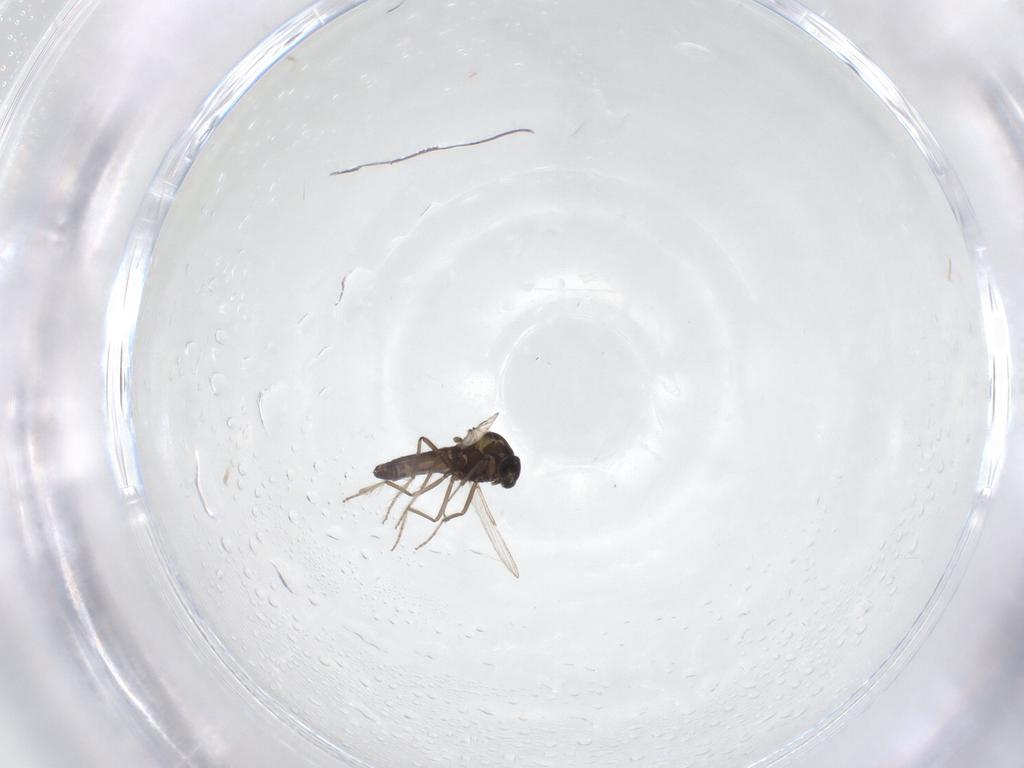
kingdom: Animalia
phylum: Arthropoda
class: Insecta
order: Diptera
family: Ceratopogonidae
